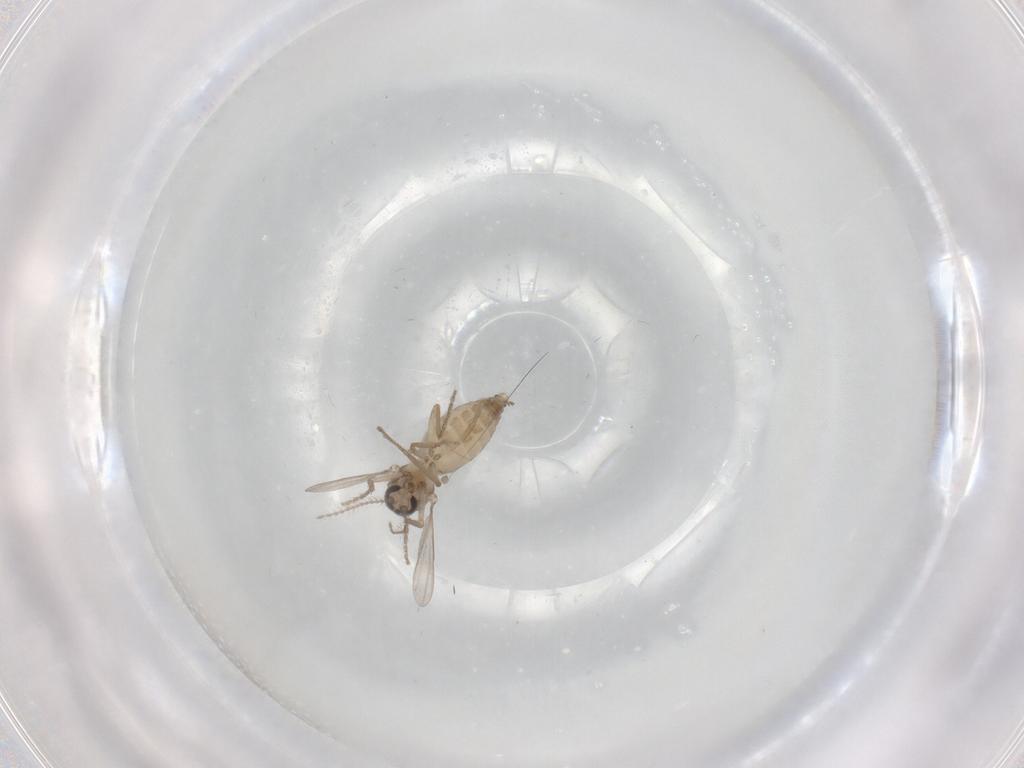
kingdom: Animalia
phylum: Arthropoda
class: Insecta
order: Diptera
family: Ceratopogonidae
